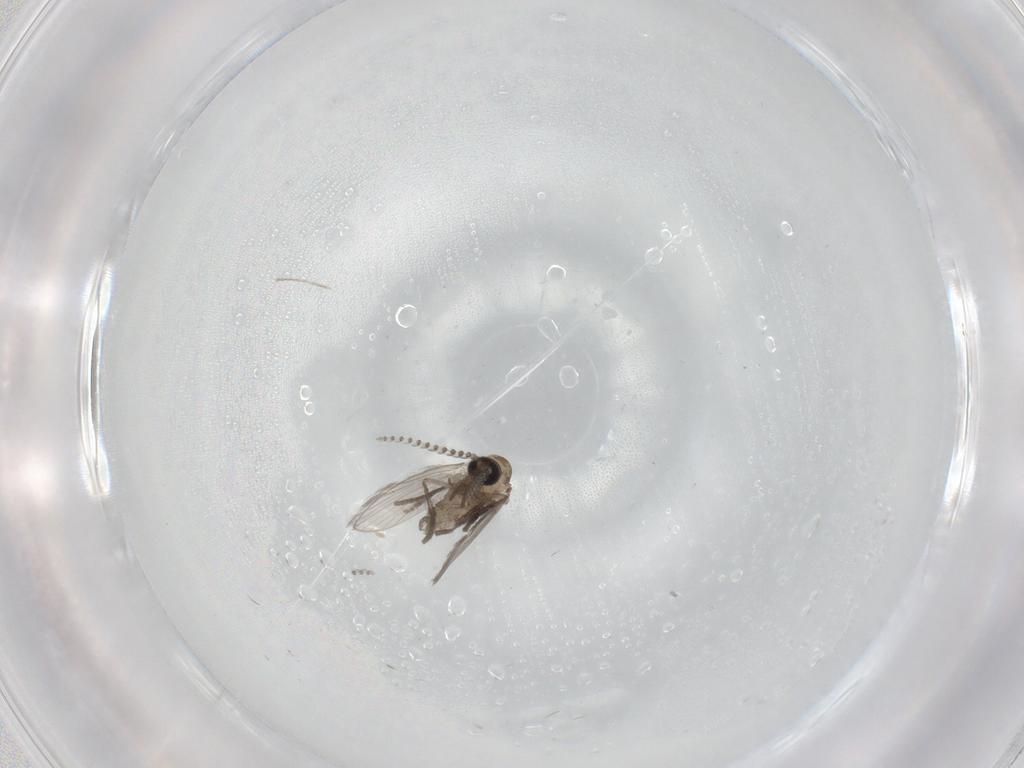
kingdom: Animalia
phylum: Arthropoda
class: Insecta
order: Diptera
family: Psychodidae
